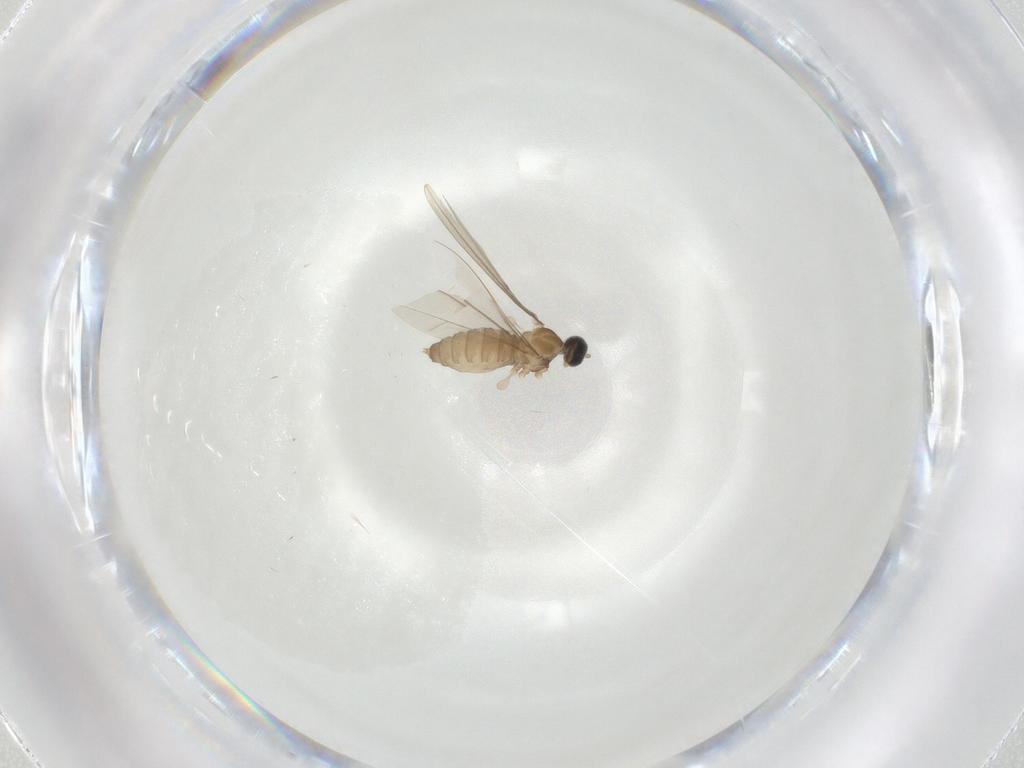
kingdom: Animalia
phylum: Arthropoda
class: Insecta
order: Diptera
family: Cecidomyiidae
